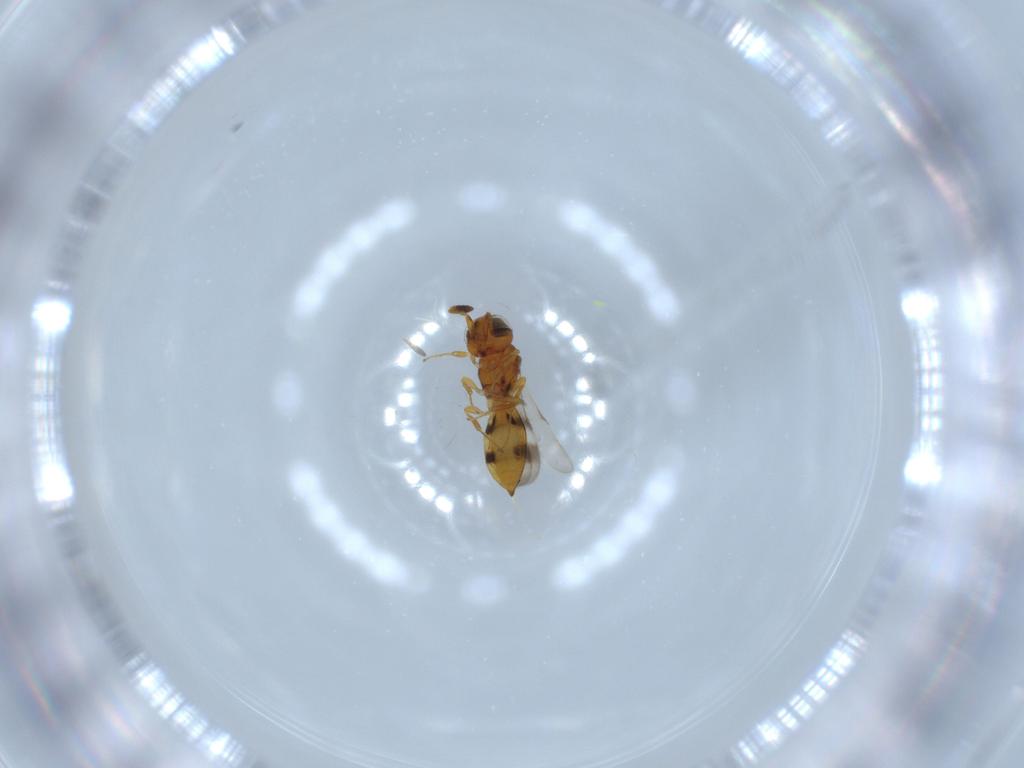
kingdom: Animalia
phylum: Arthropoda
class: Insecta
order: Hymenoptera
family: Scelionidae
